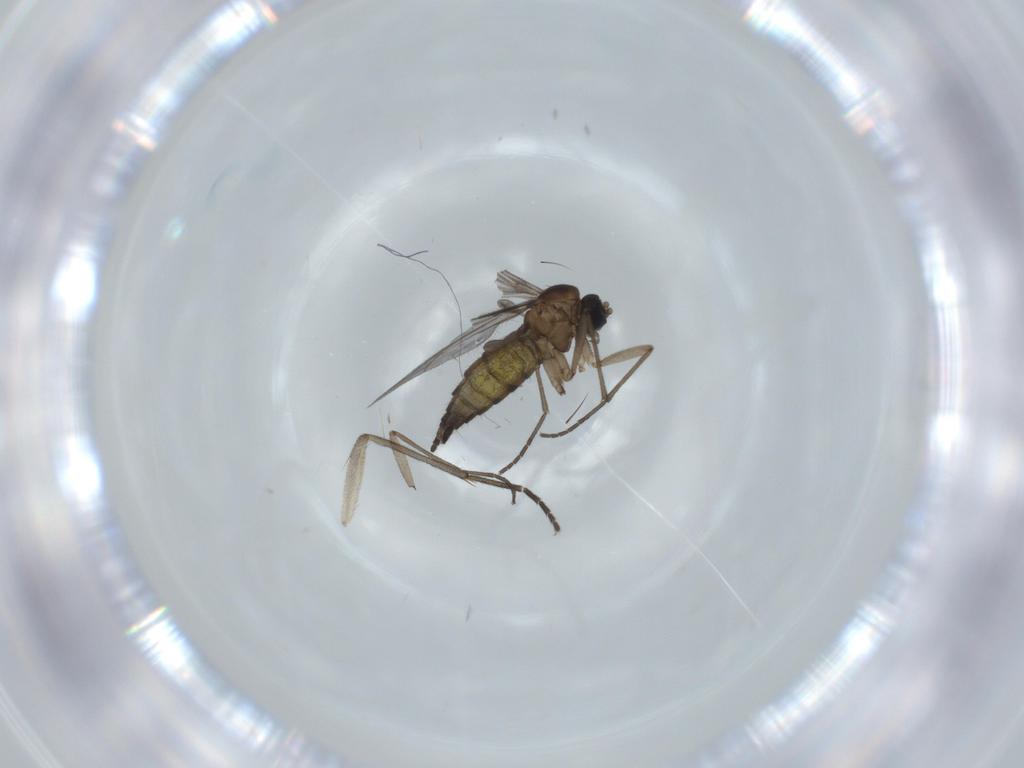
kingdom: Animalia
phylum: Arthropoda
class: Insecta
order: Diptera
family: Sciaridae
